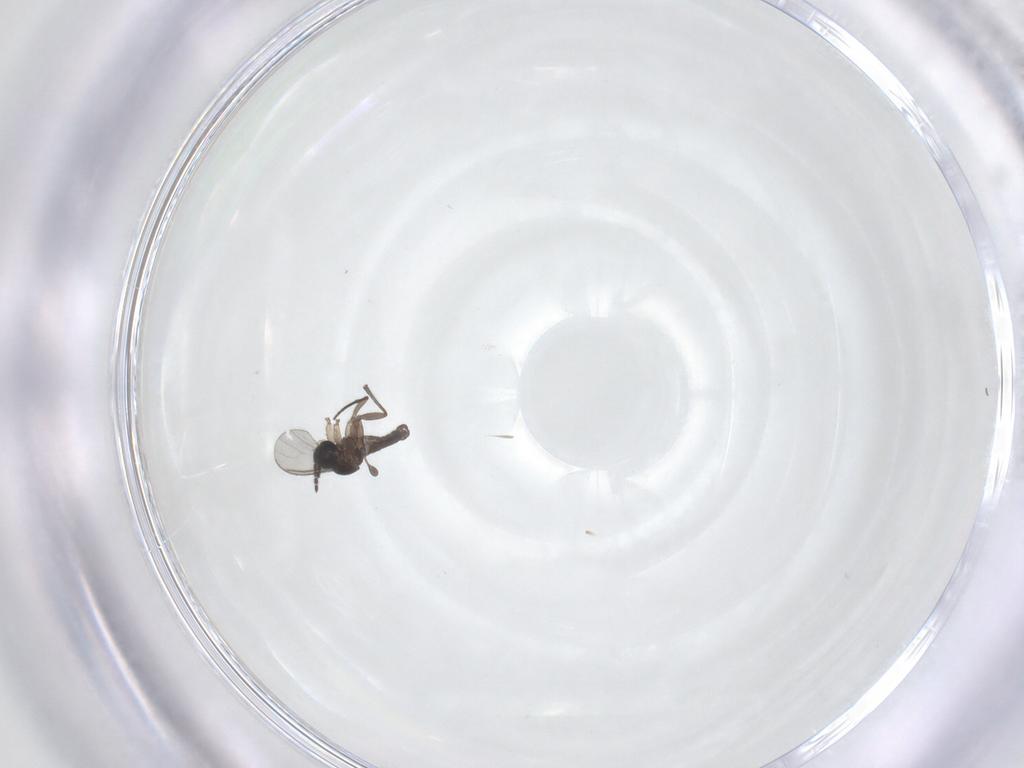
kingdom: Animalia
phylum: Arthropoda
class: Insecta
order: Diptera
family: Sciaridae
